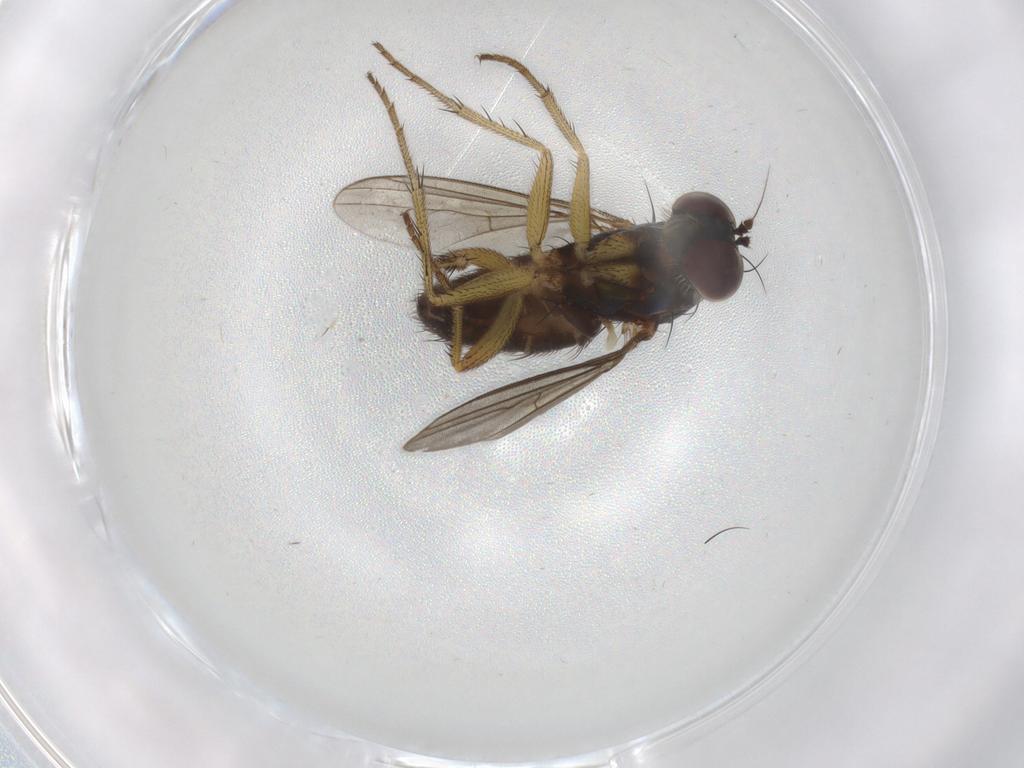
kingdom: Animalia
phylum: Arthropoda
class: Insecta
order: Diptera
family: Dolichopodidae
